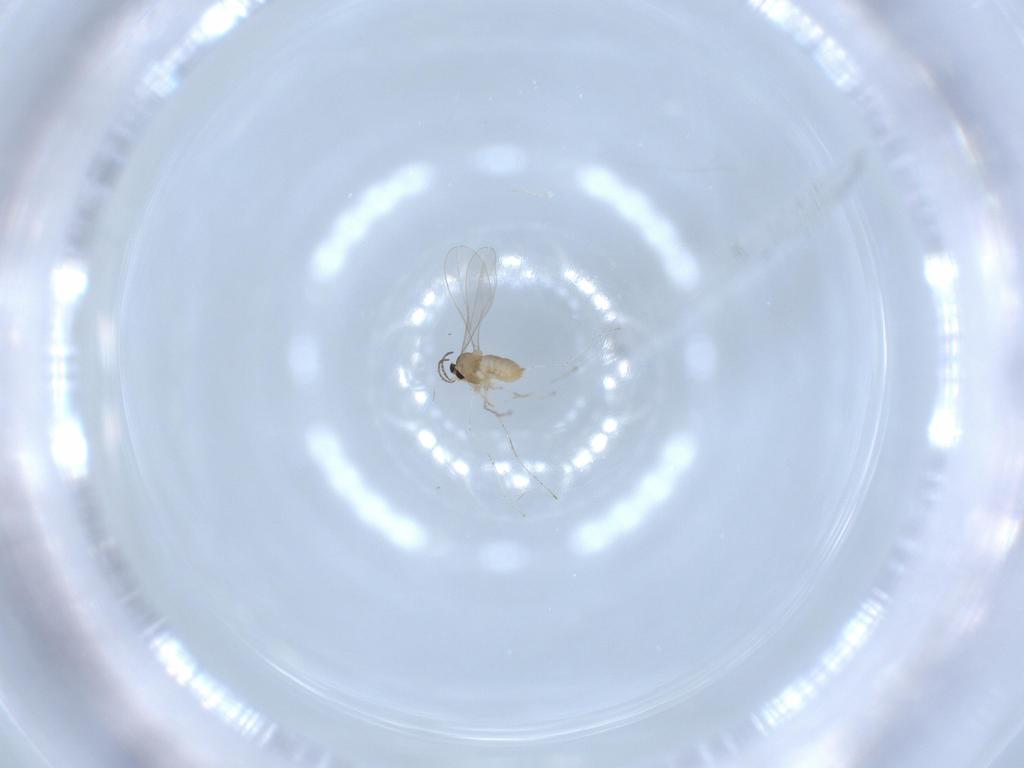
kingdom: Animalia
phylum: Arthropoda
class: Insecta
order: Diptera
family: Cecidomyiidae
